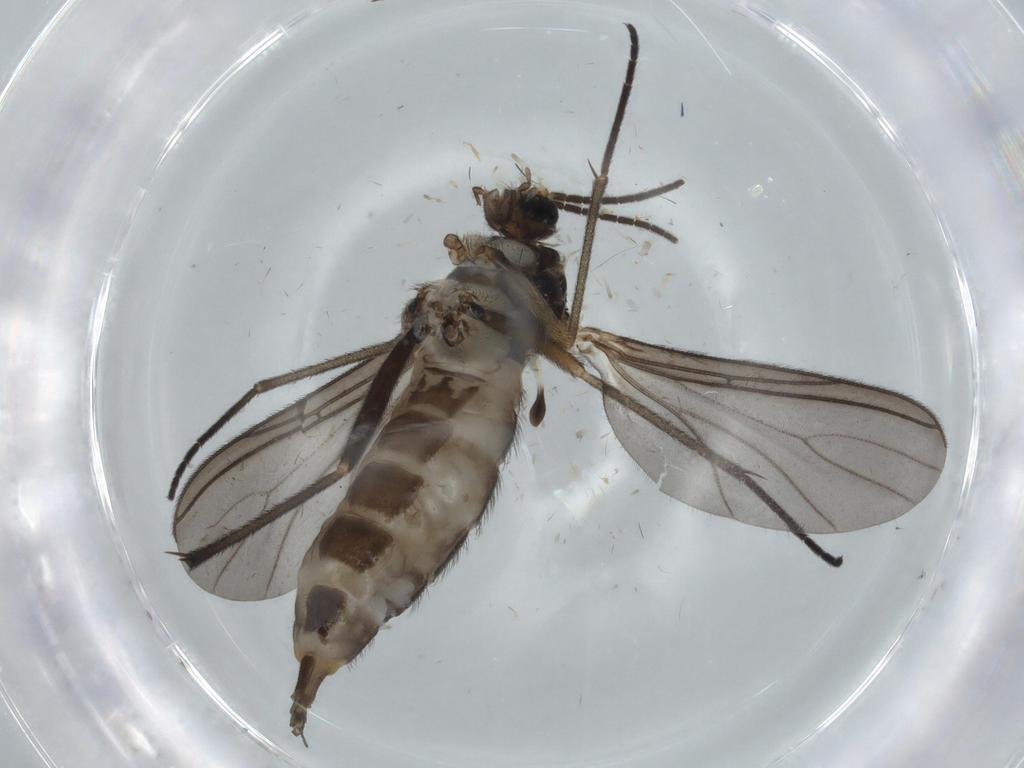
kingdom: Animalia
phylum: Arthropoda
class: Insecta
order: Diptera
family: Sciaridae
